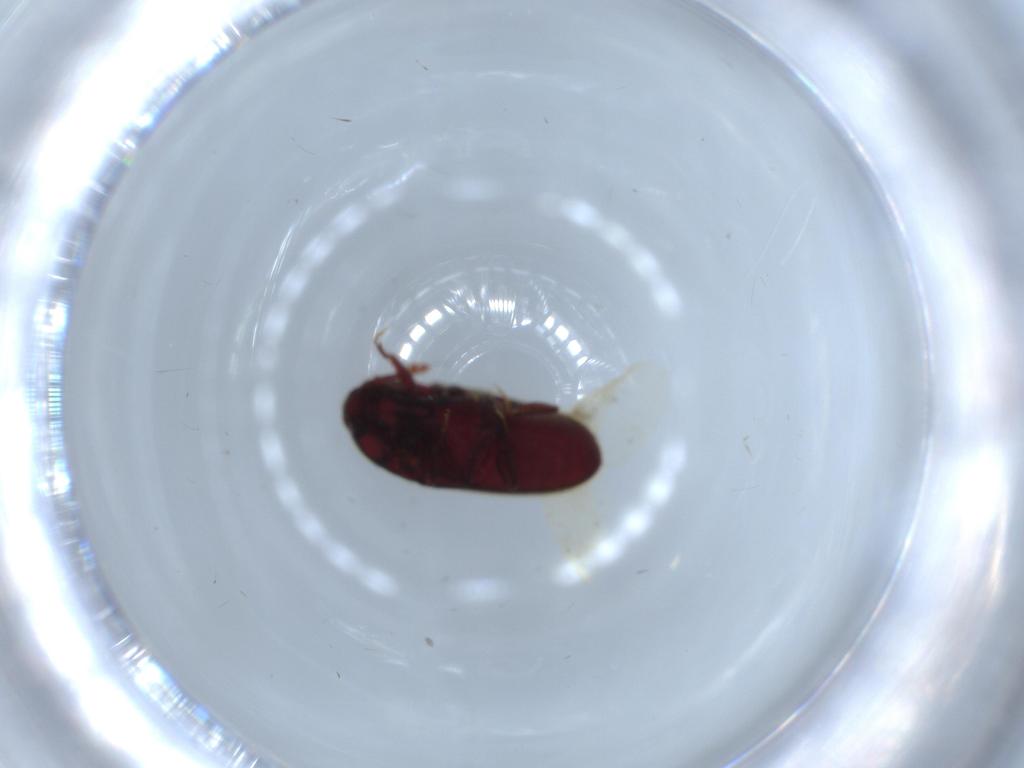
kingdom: Animalia
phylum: Arthropoda
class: Insecta
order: Coleoptera
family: Throscidae
